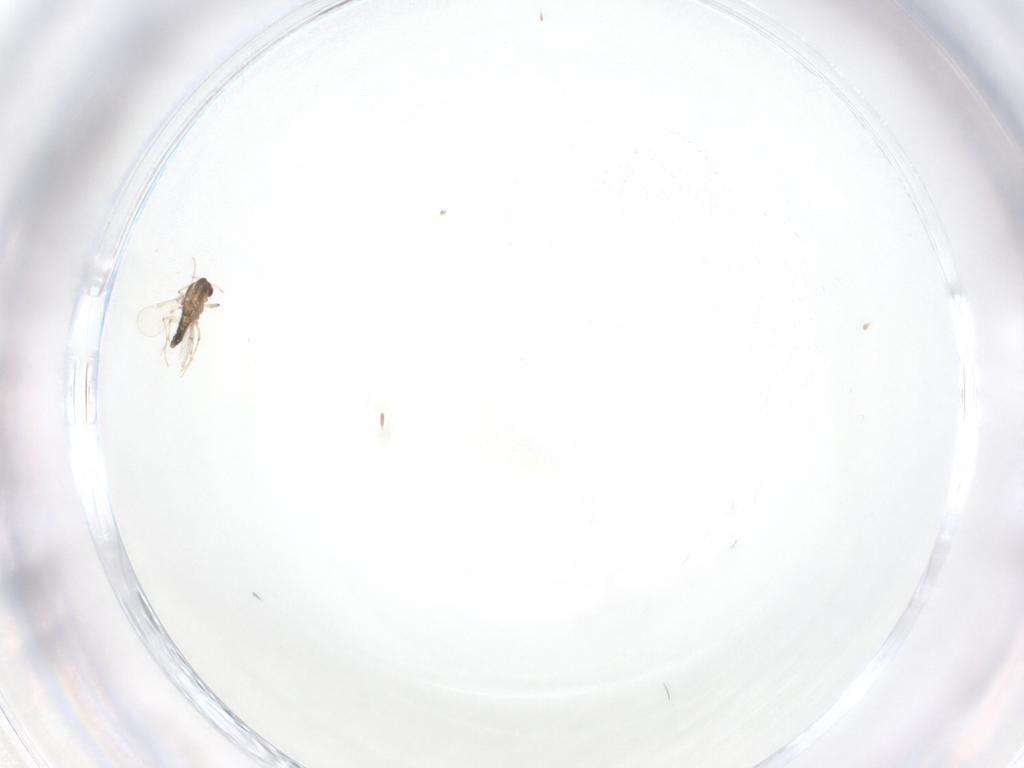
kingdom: Animalia
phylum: Arthropoda
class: Insecta
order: Diptera
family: Chironomidae
